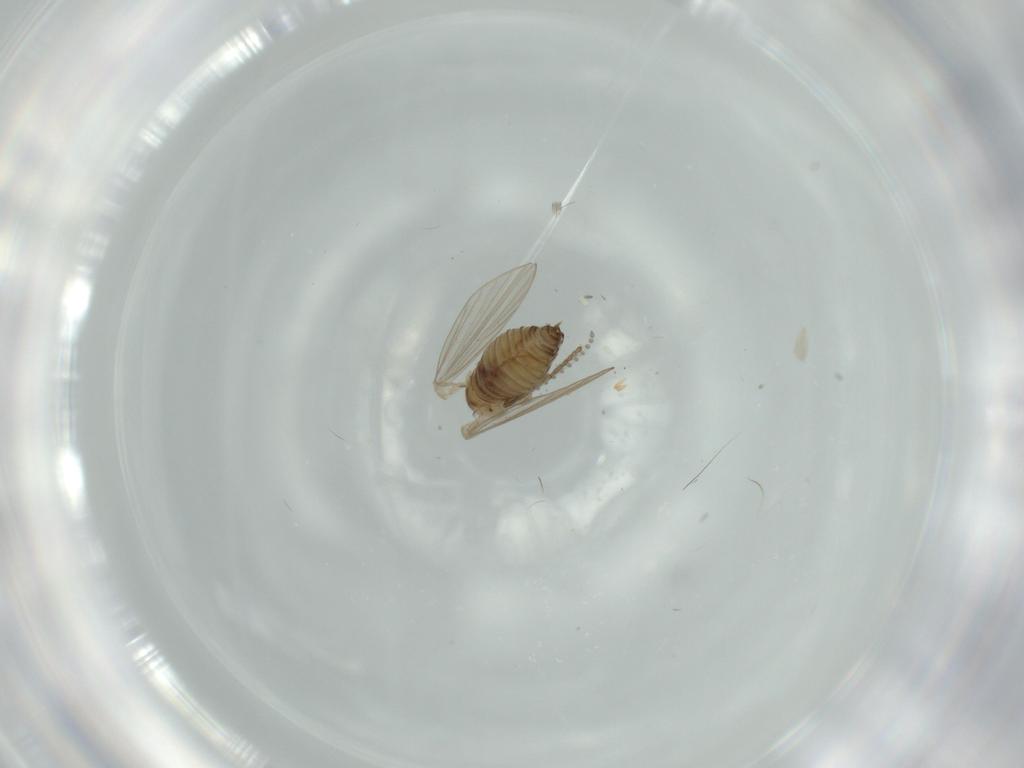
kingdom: Animalia
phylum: Arthropoda
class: Insecta
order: Diptera
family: Psychodidae
